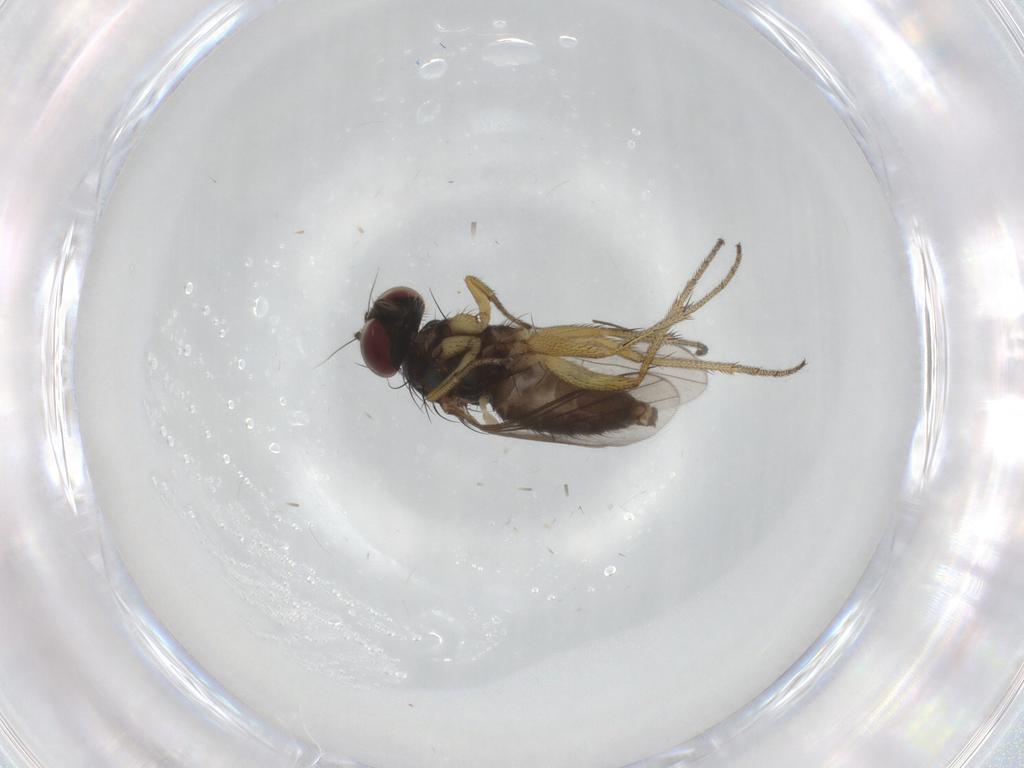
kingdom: Animalia
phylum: Arthropoda
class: Insecta
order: Diptera
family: Dolichopodidae
